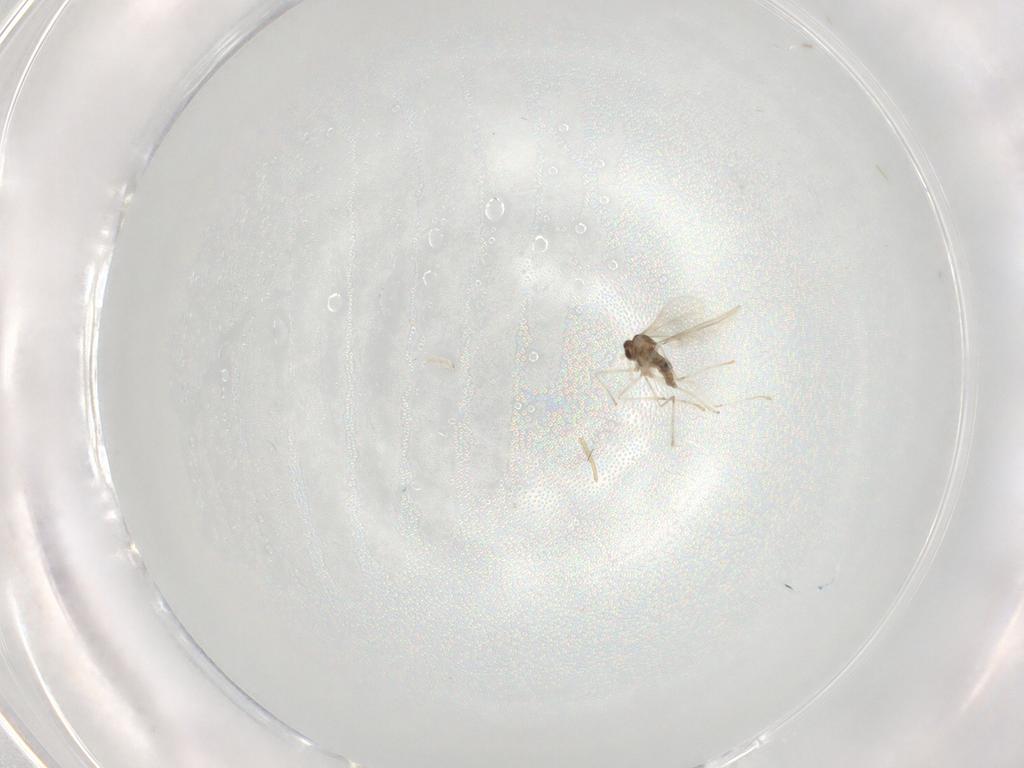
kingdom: Animalia
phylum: Arthropoda
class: Insecta
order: Diptera
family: Cecidomyiidae
